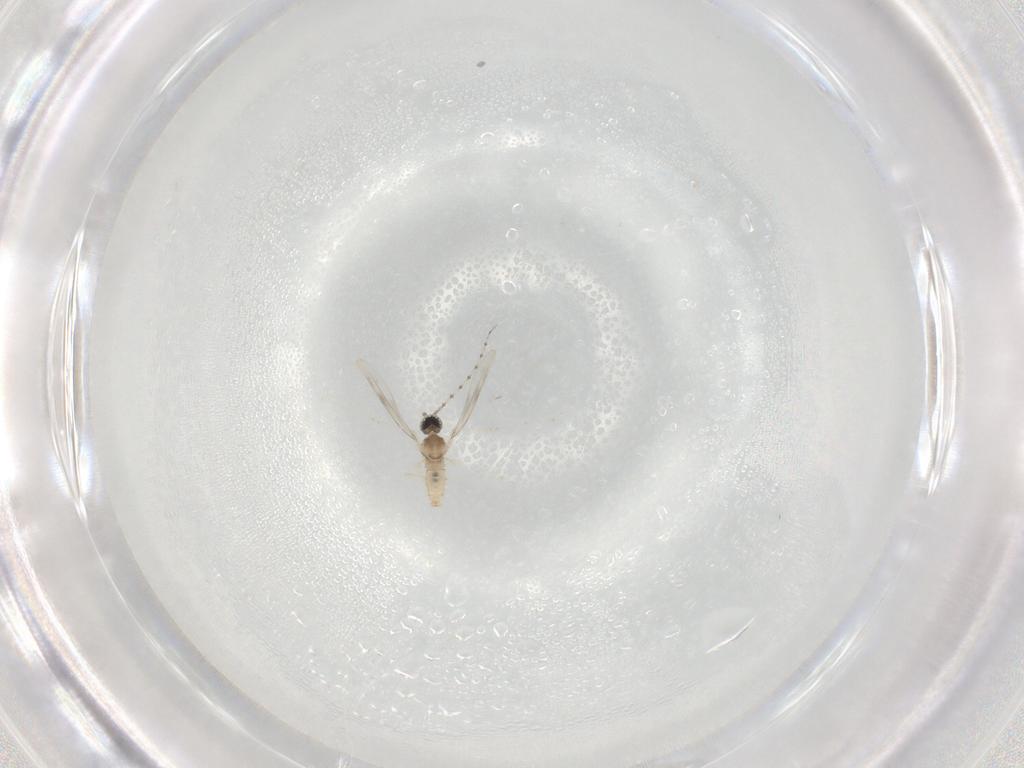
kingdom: Animalia
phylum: Arthropoda
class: Insecta
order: Diptera
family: Cecidomyiidae
